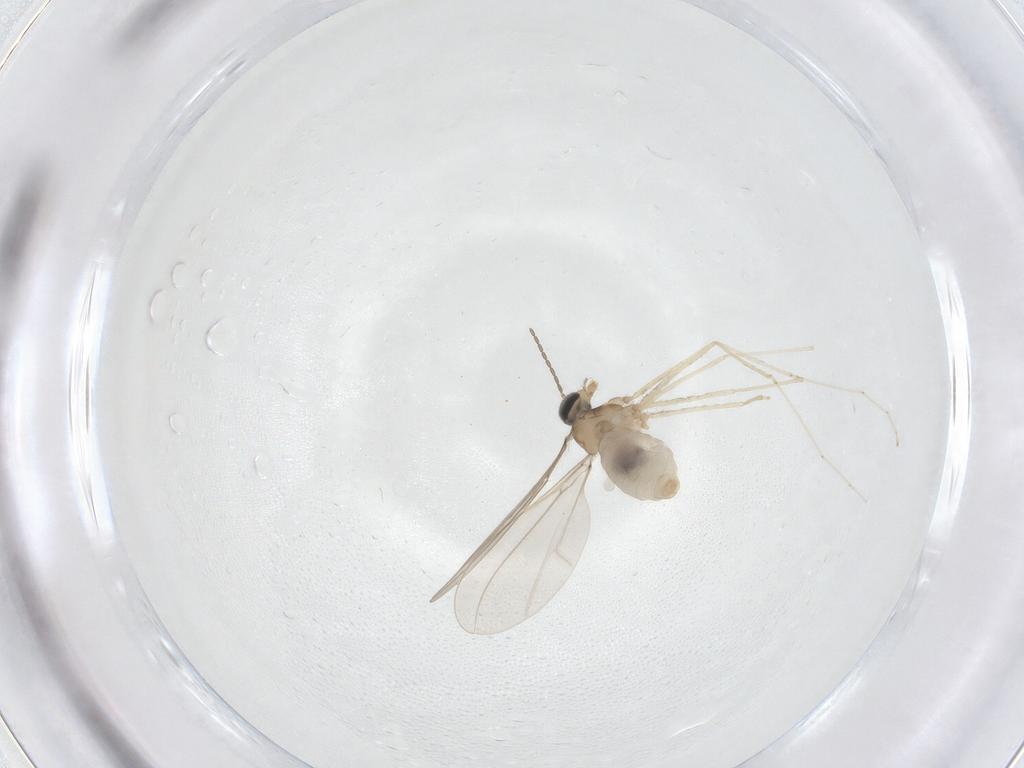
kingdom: Animalia
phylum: Arthropoda
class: Insecta
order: Diptera
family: Cecidomyiidae
